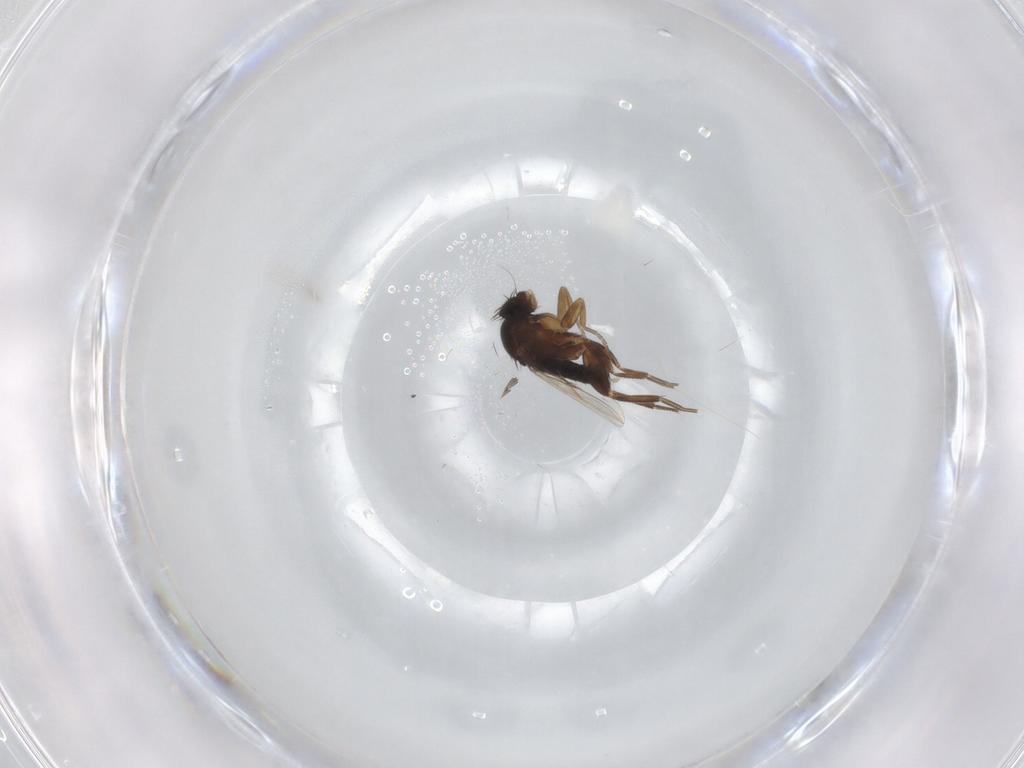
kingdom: Animalia
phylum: Arthropoda
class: Insecta
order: Diptera
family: Phoridae
